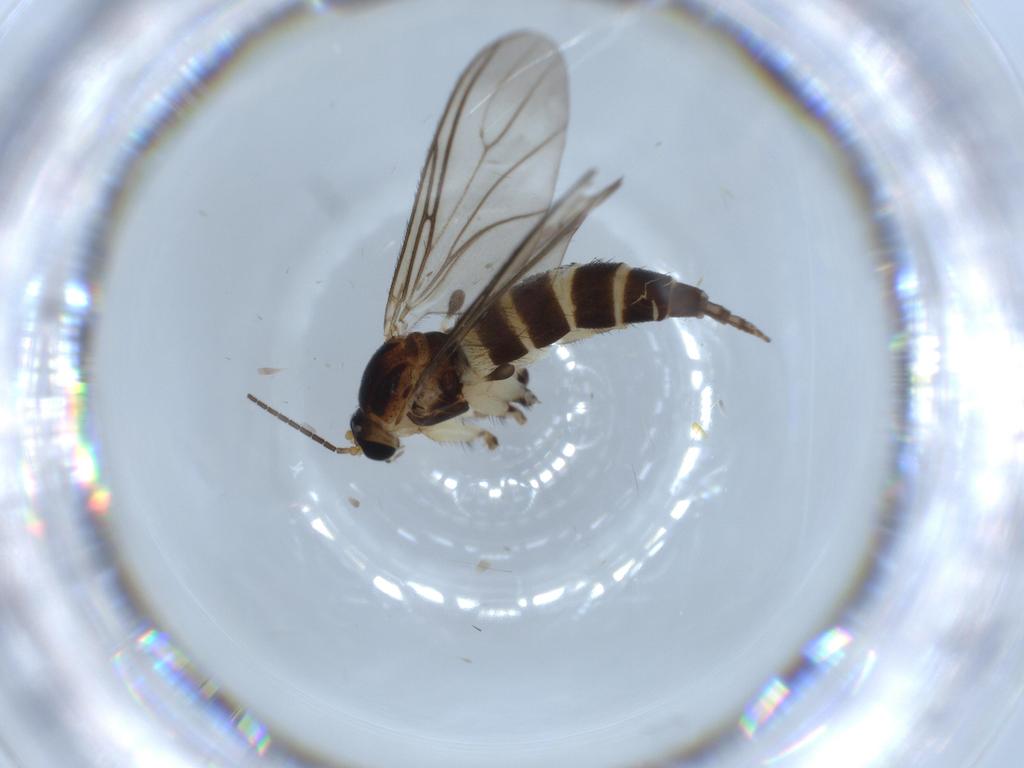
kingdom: Animalia
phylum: Arthropoda
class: Insecta
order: Diptera
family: Sciaridae
